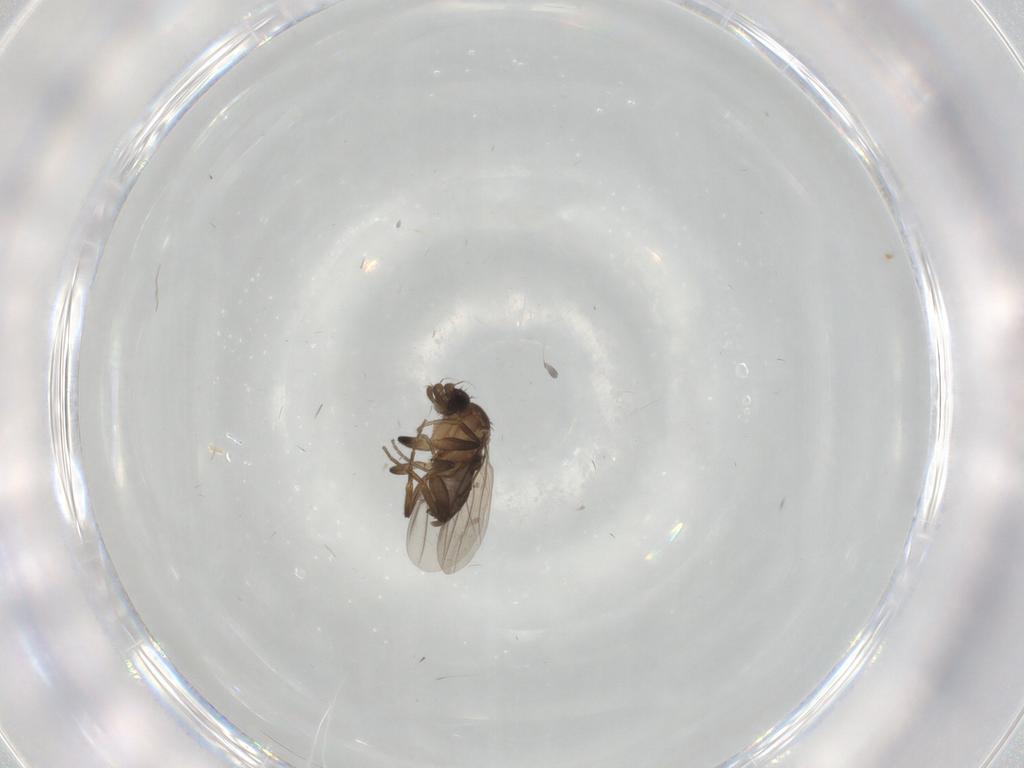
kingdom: Animalia
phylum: Arthropoda
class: Insecta
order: Diptera
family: Phoridae
